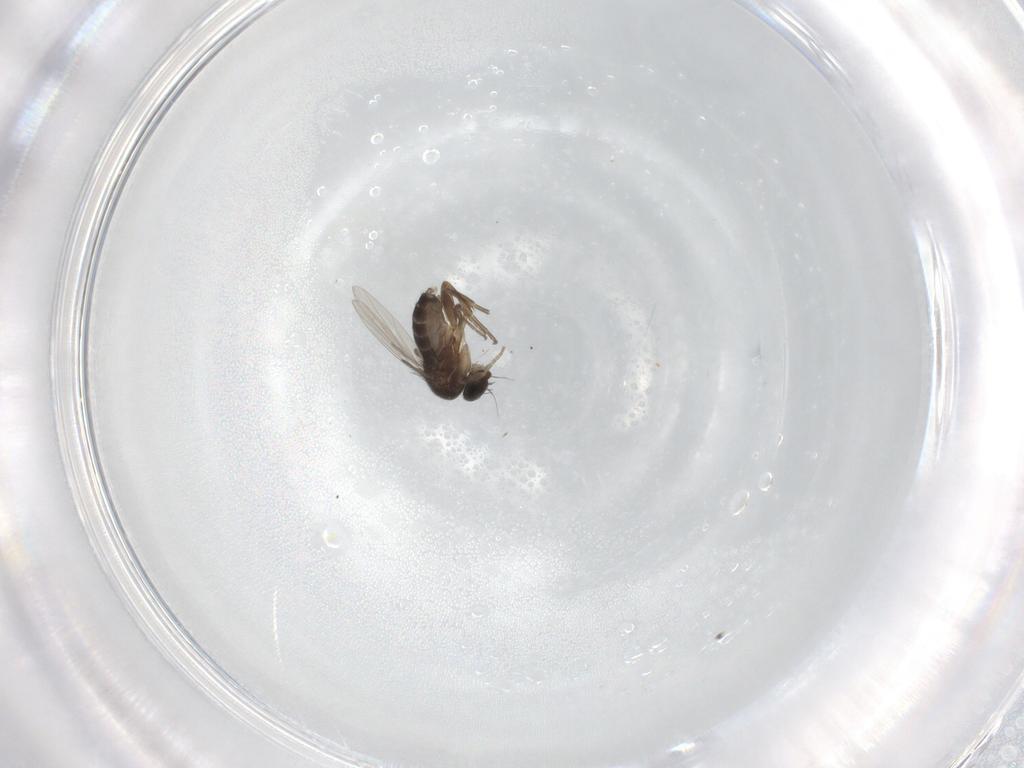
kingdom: Animalia
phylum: Arthropoda
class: Insecta
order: Diptera
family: Phoridae
